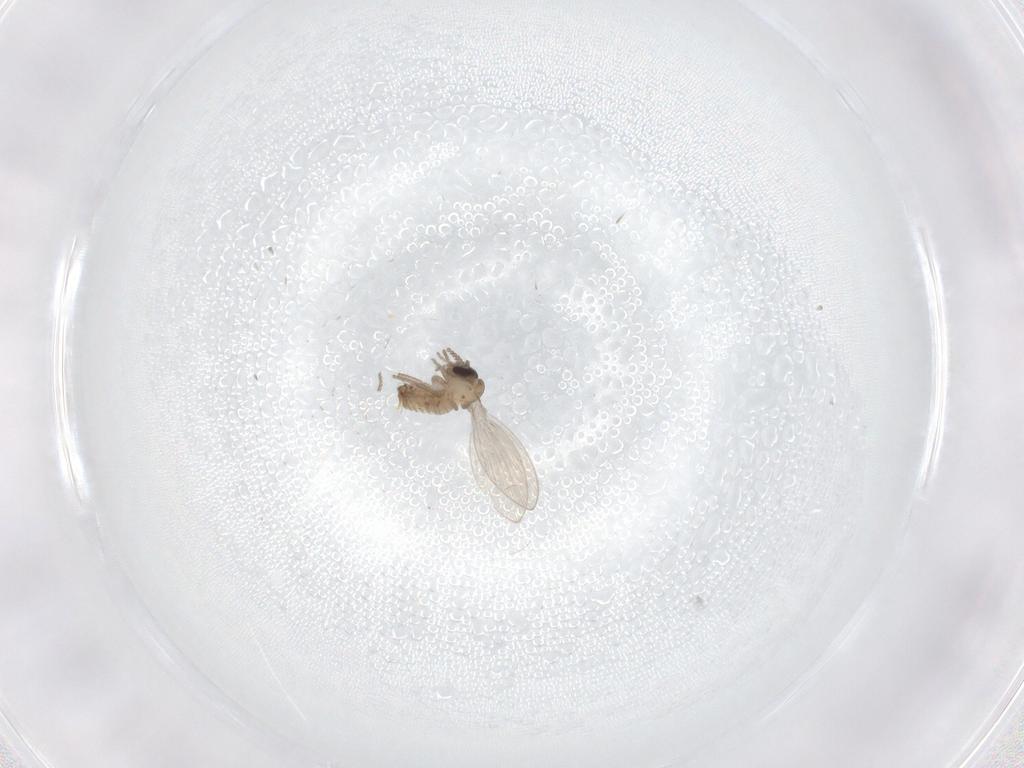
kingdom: Animalia
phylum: Arthropoda
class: Insecta
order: Diptera
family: Psychodidae
